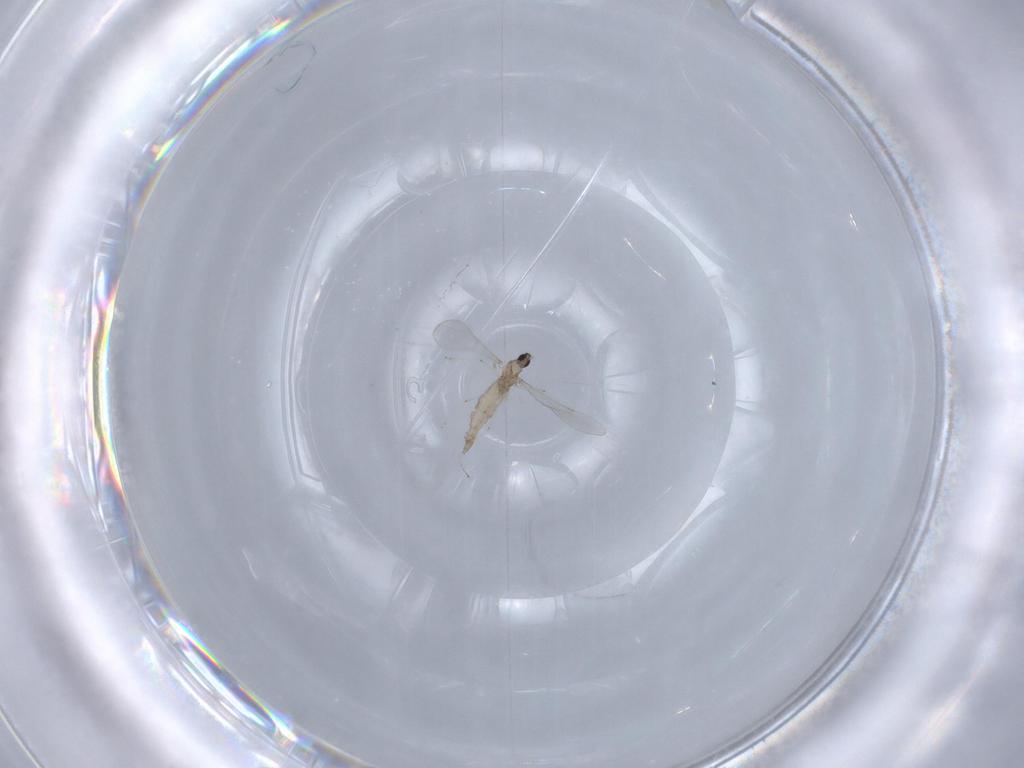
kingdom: Animalia
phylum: Arthropoda
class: Insecta
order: Diptera
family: Cecidomyiidae
